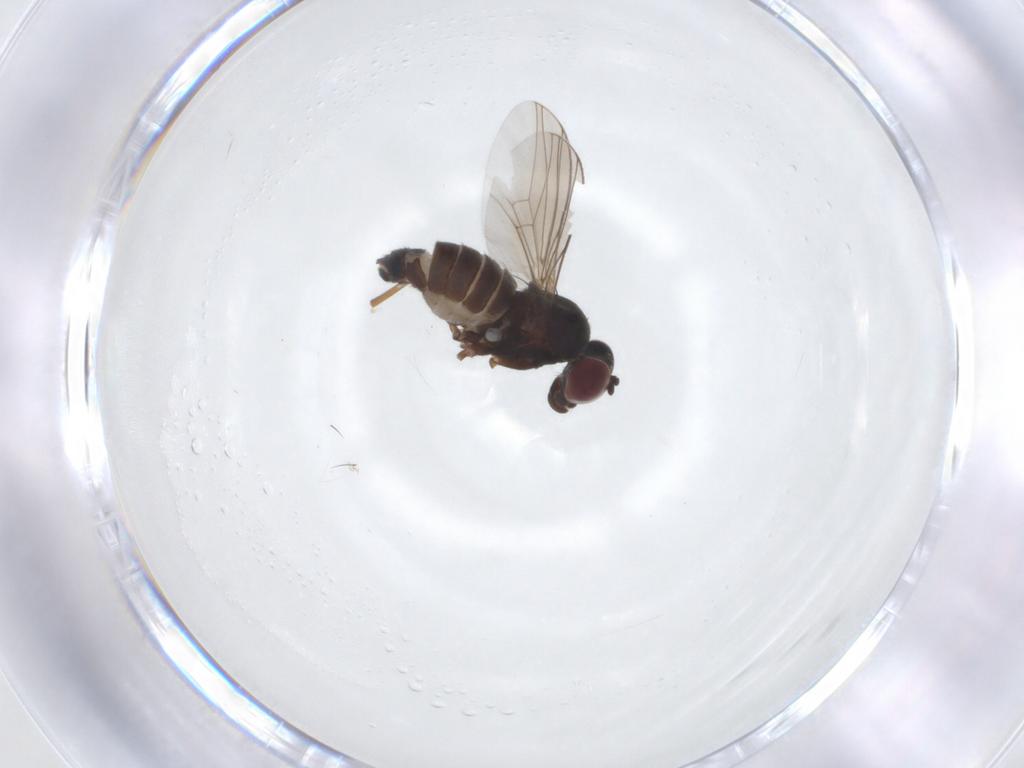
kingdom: Animalia
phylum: Arthropoda
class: Insecta
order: Diptera
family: Dolichopodidae
